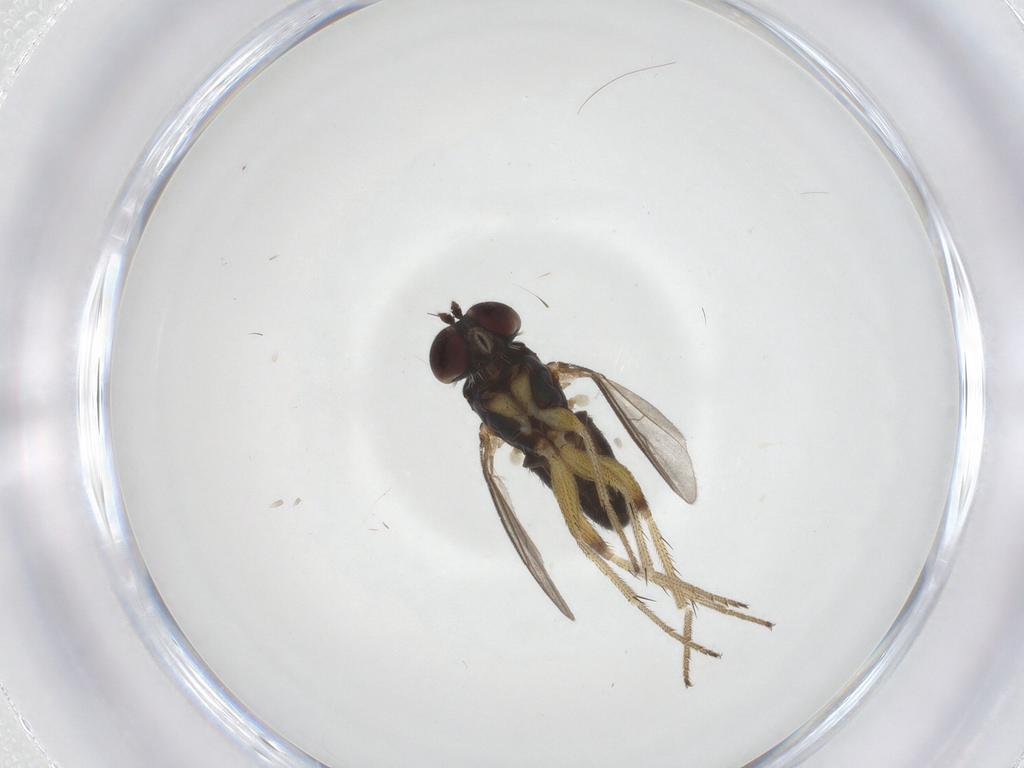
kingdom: Animalia
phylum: Arthropoda
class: Insecta
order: Diptera
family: Dolichopodidae
